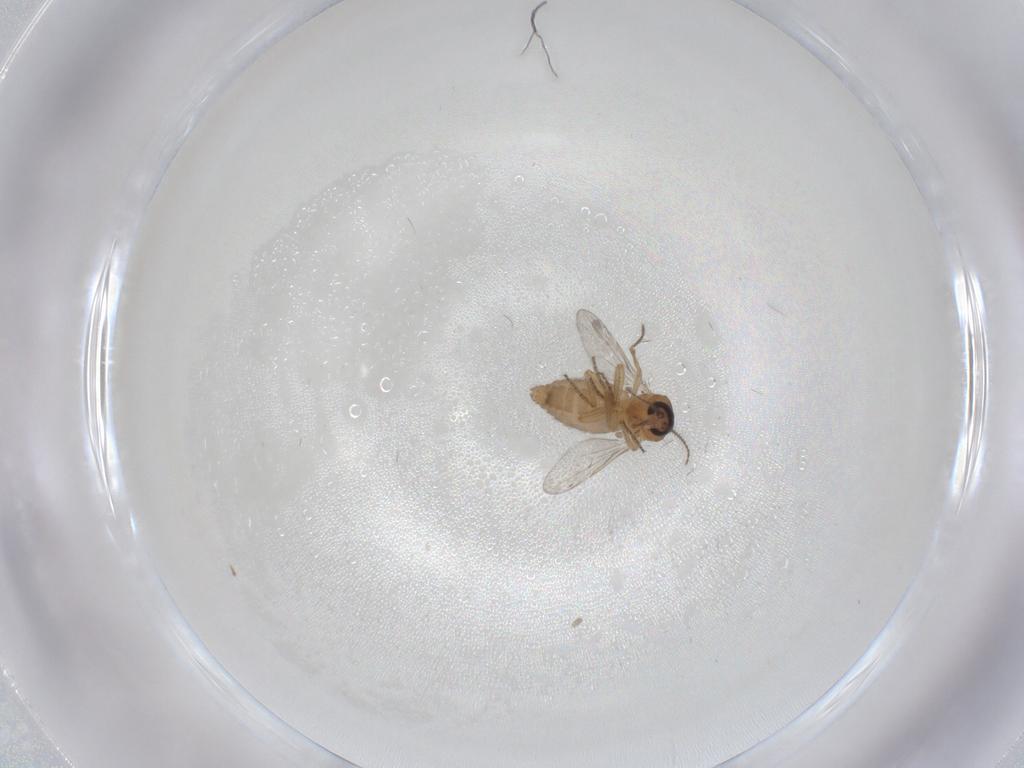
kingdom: Animalia
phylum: Arthropoda
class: Insecta
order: Diptera
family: Ceratopogonidae
